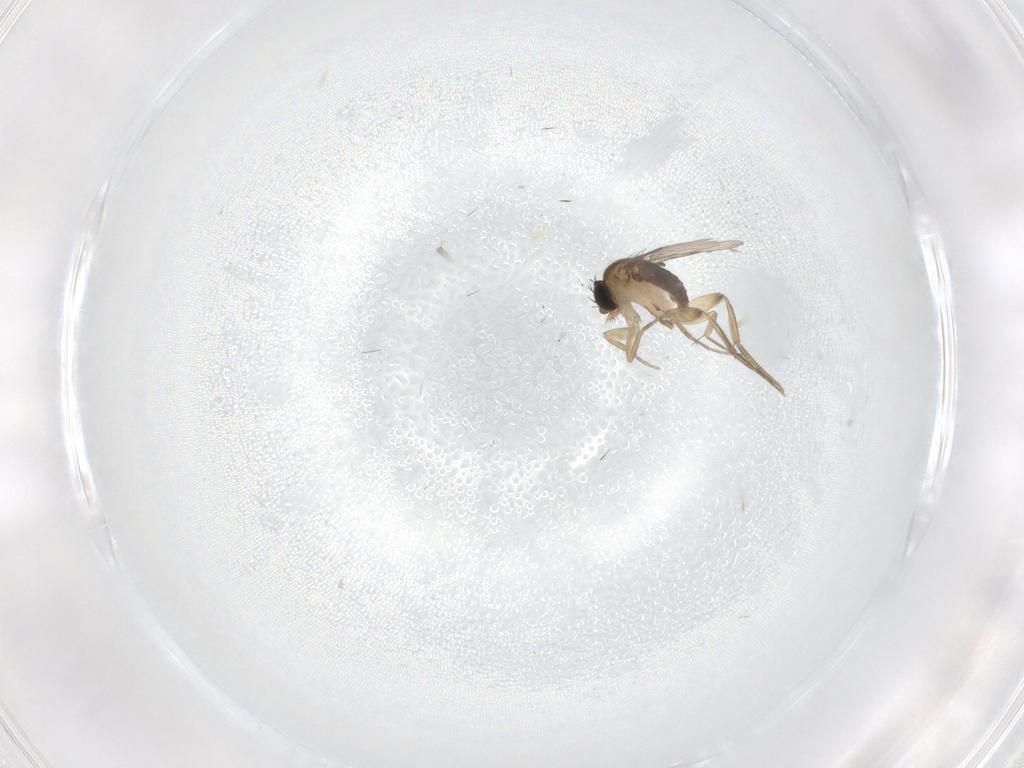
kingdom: Animalia
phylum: Arthropoda
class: Insecta
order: Diptera
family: Phoridae
